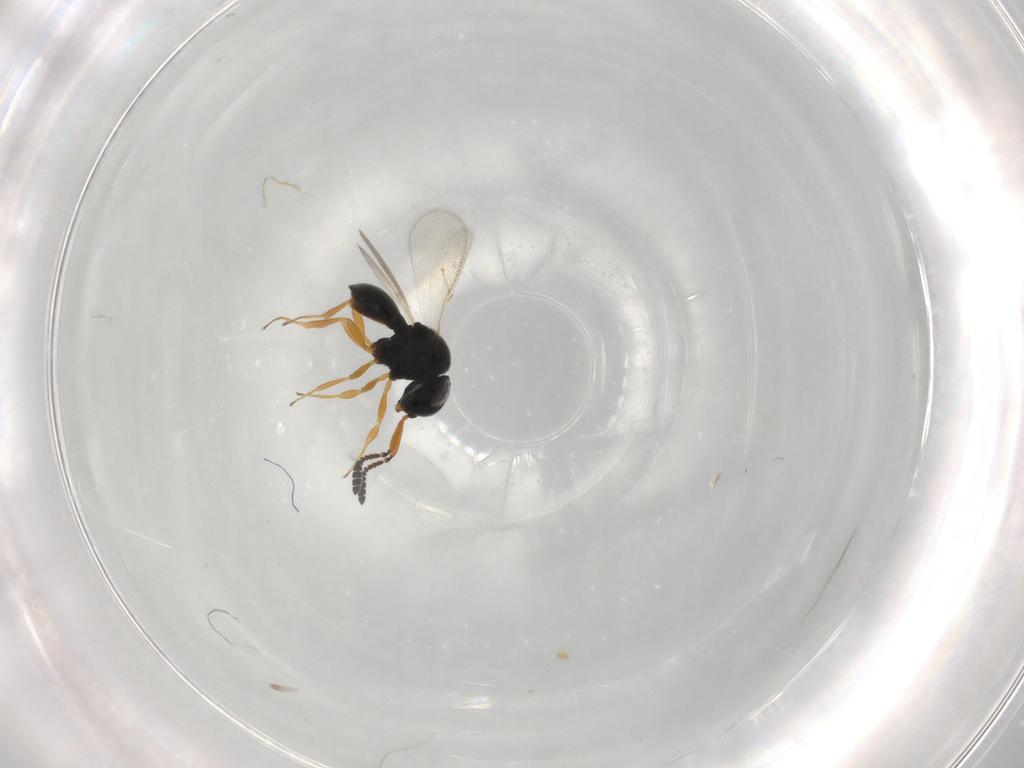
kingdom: Animalia
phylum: Arthropoda
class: Insecta
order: Hymenoptera
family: Scelionidae
